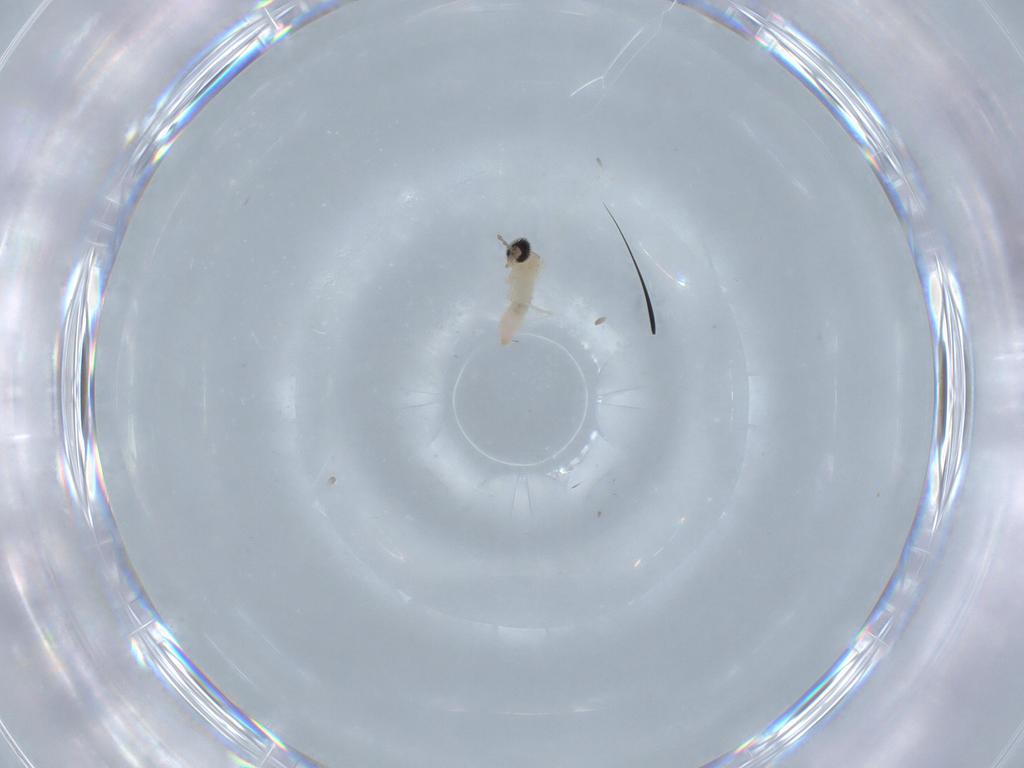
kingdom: Animalia
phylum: Arthropoda
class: Insecta
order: Diptera
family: Cecidomyiidae
